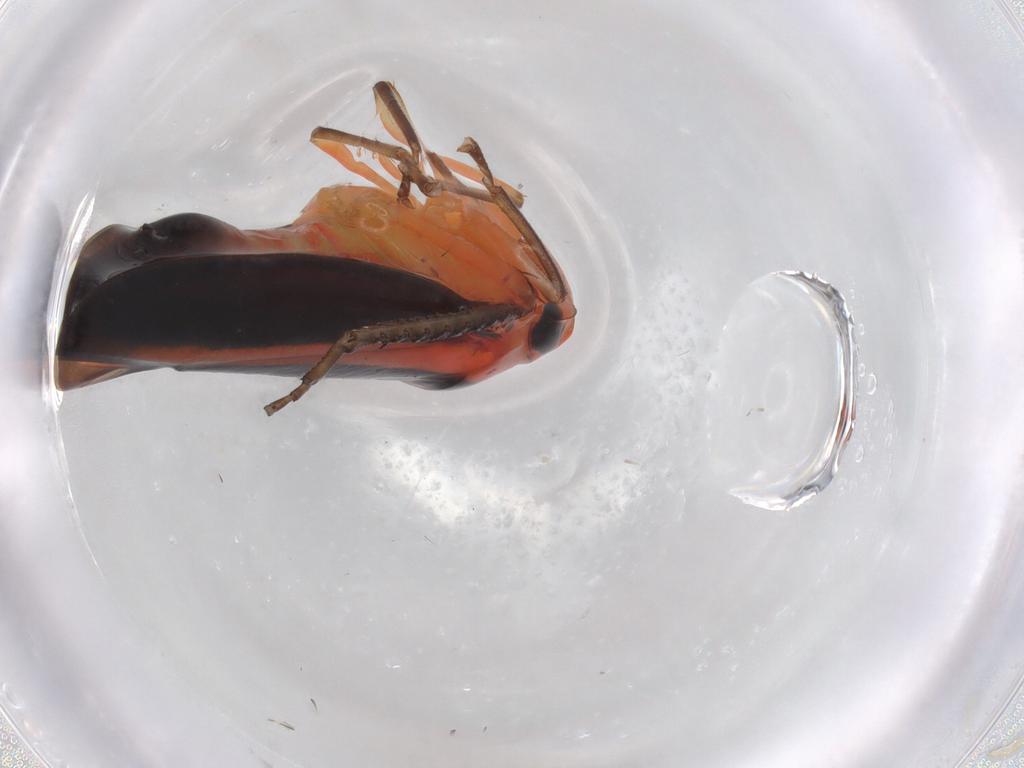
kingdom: Animalia
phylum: Arthropoda
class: Insecta
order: Hemiptera
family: Cicadellidae
